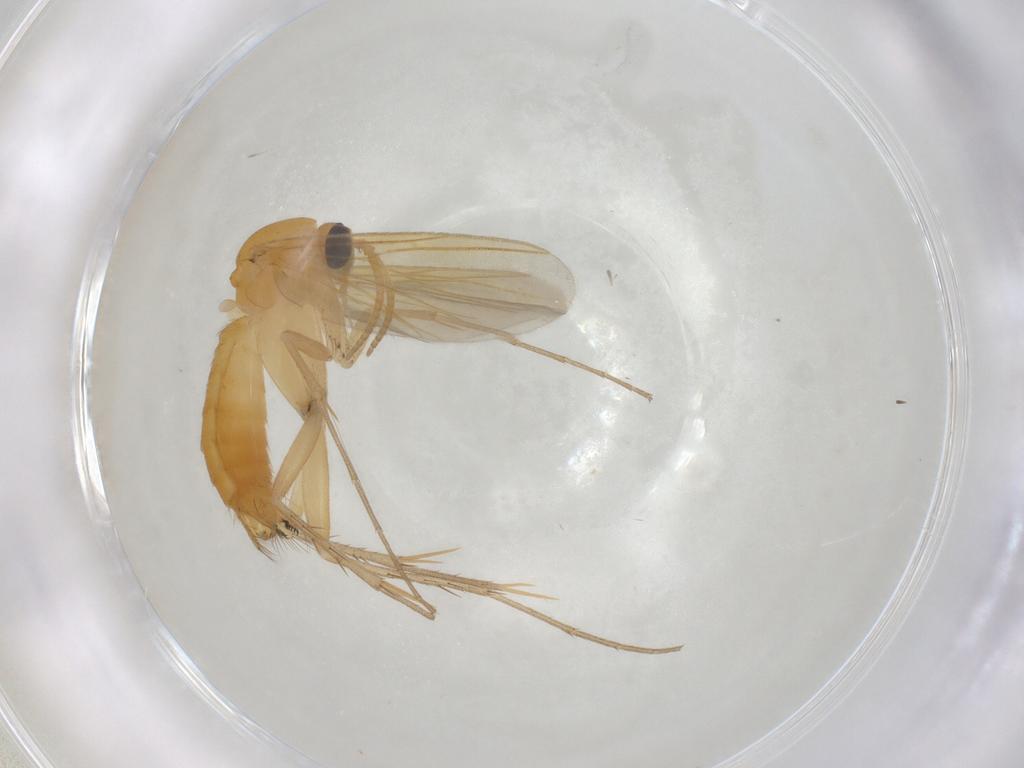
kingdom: Animalia
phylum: Arthropoda
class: Insecta
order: Diptera
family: Mycetophilidae
